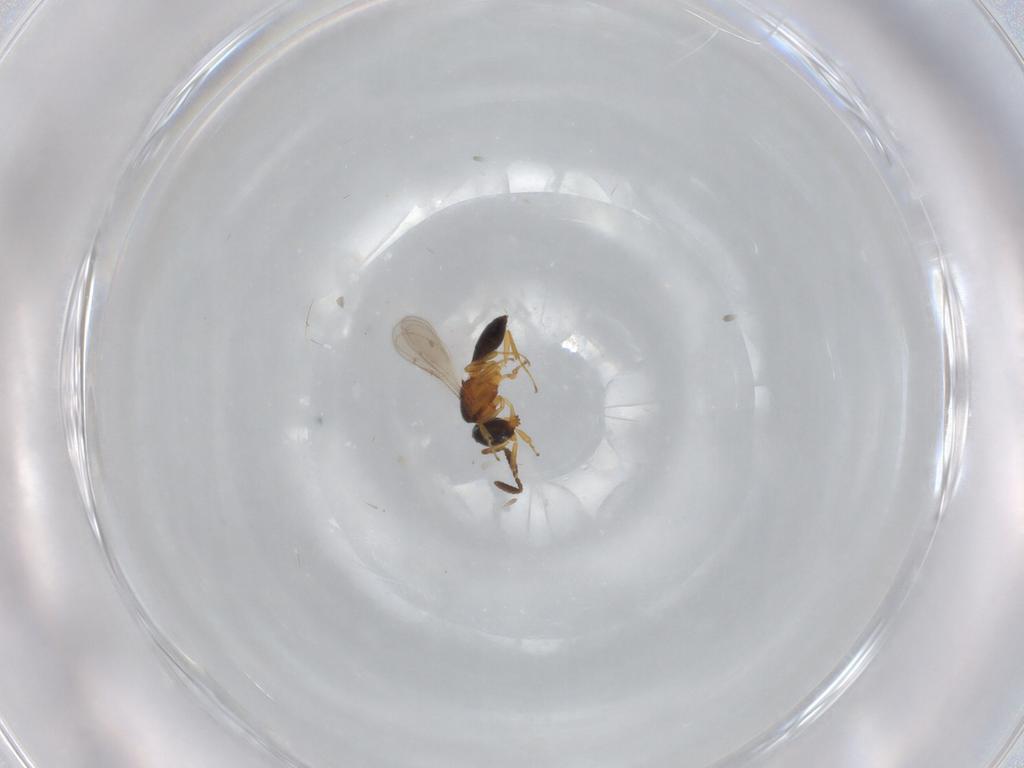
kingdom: Animalia
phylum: Arthropoda
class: Insecta
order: Hymenoptera
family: Scelionidae
